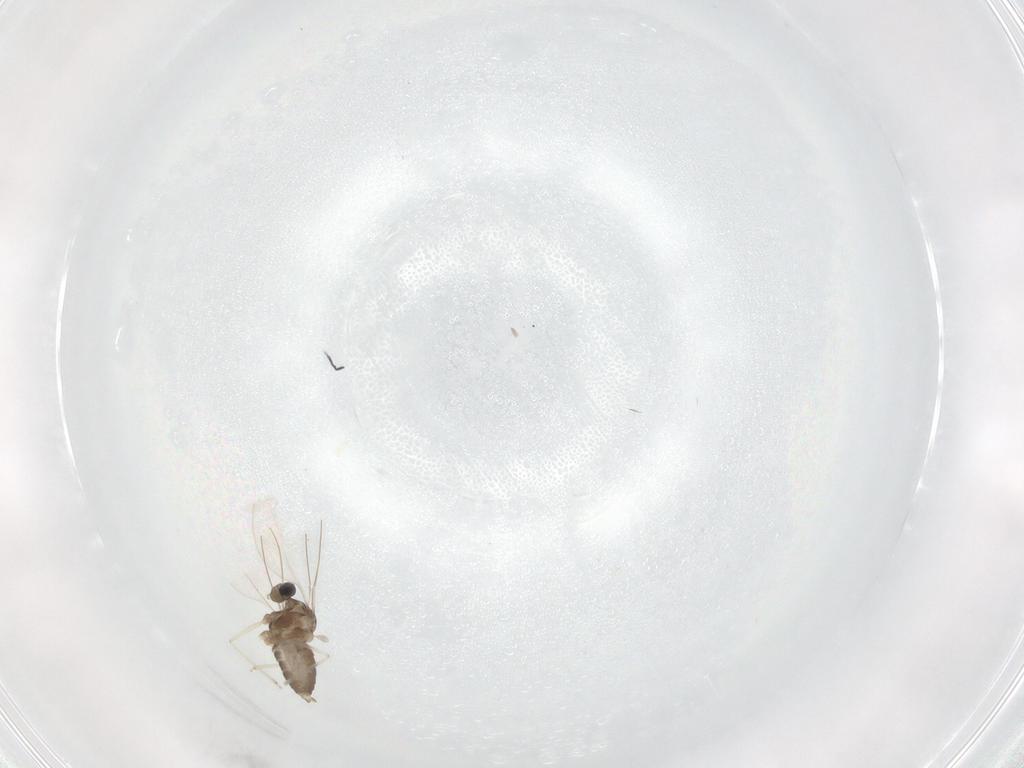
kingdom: Animalia
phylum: Arthropoda
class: Insecta
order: Diptera
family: Cecidomyiidae
